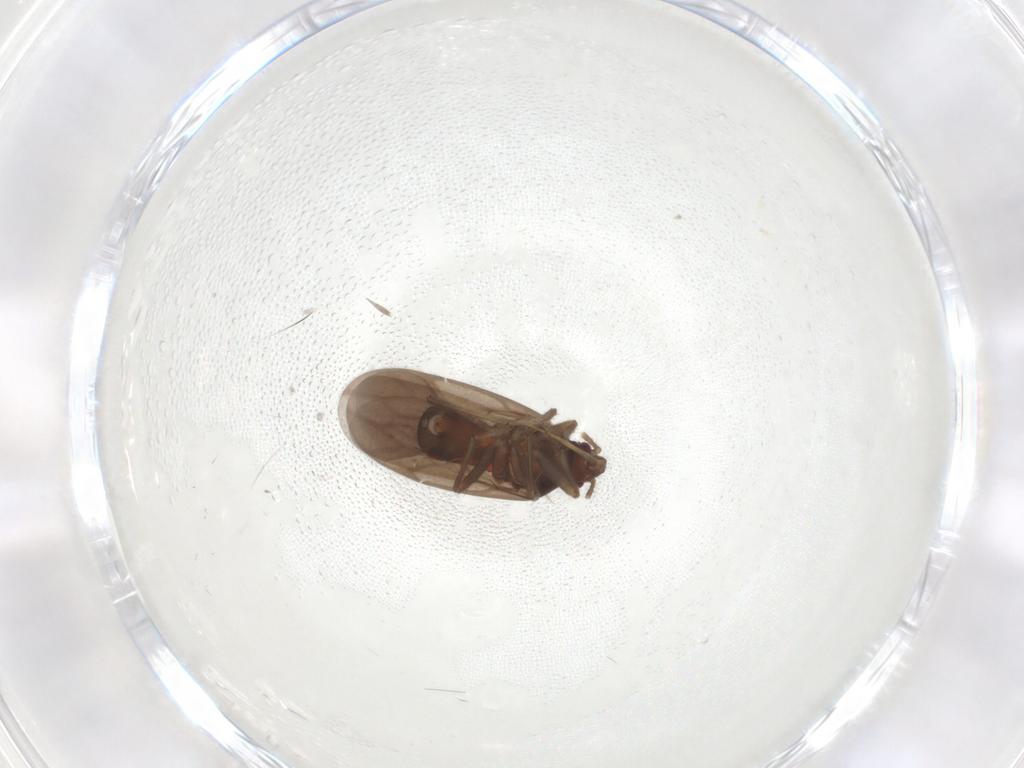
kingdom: Animalia
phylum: Arthropoda
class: Insecta
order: Hemiptera
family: Ceratocombidae
